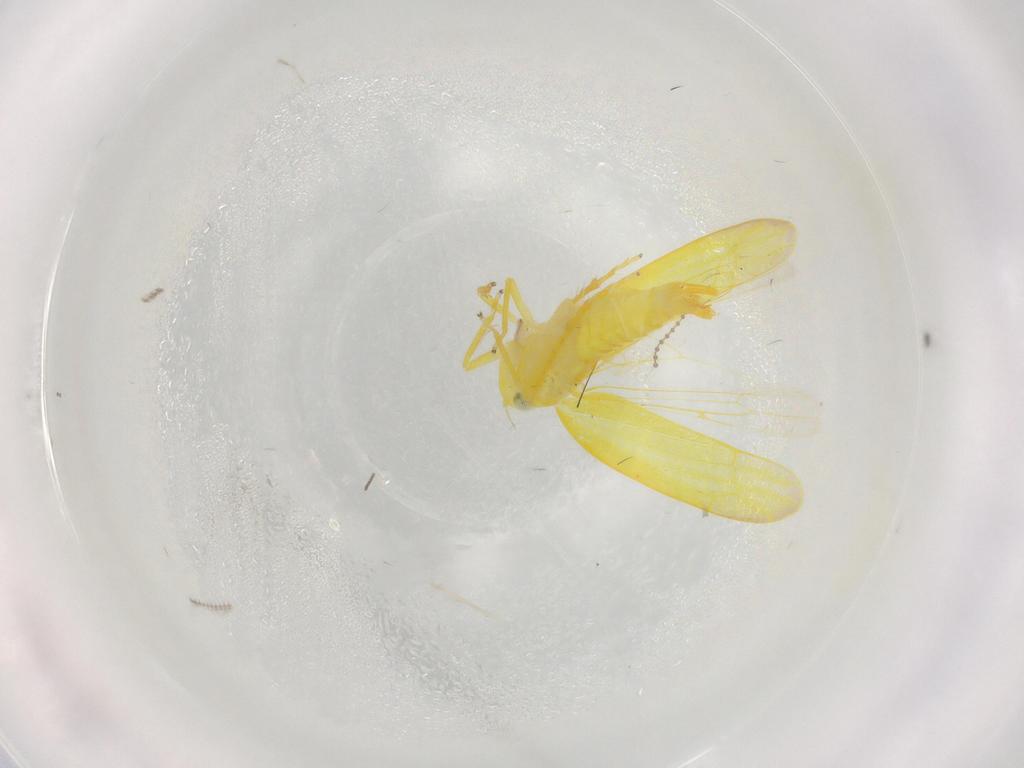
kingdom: Animalia
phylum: Arthropoda
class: Insecta
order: Hemiptera
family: Cicadellidae
